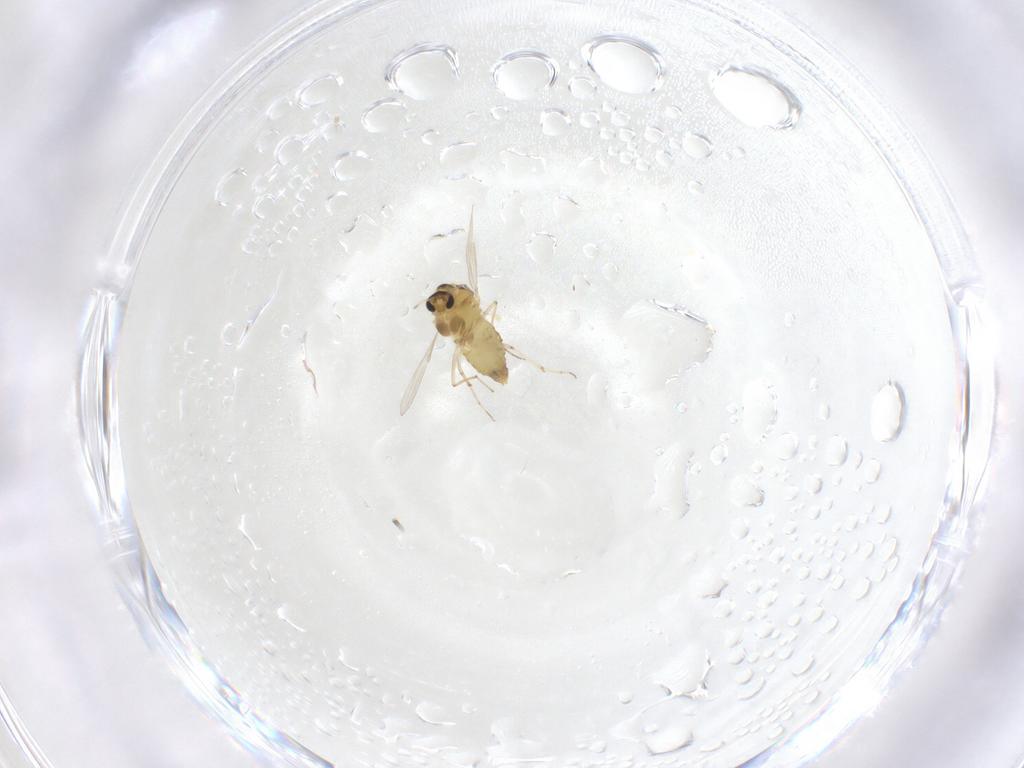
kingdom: Animalia
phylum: Arthropoda
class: Insecta
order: Diptera
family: Chironomidae
